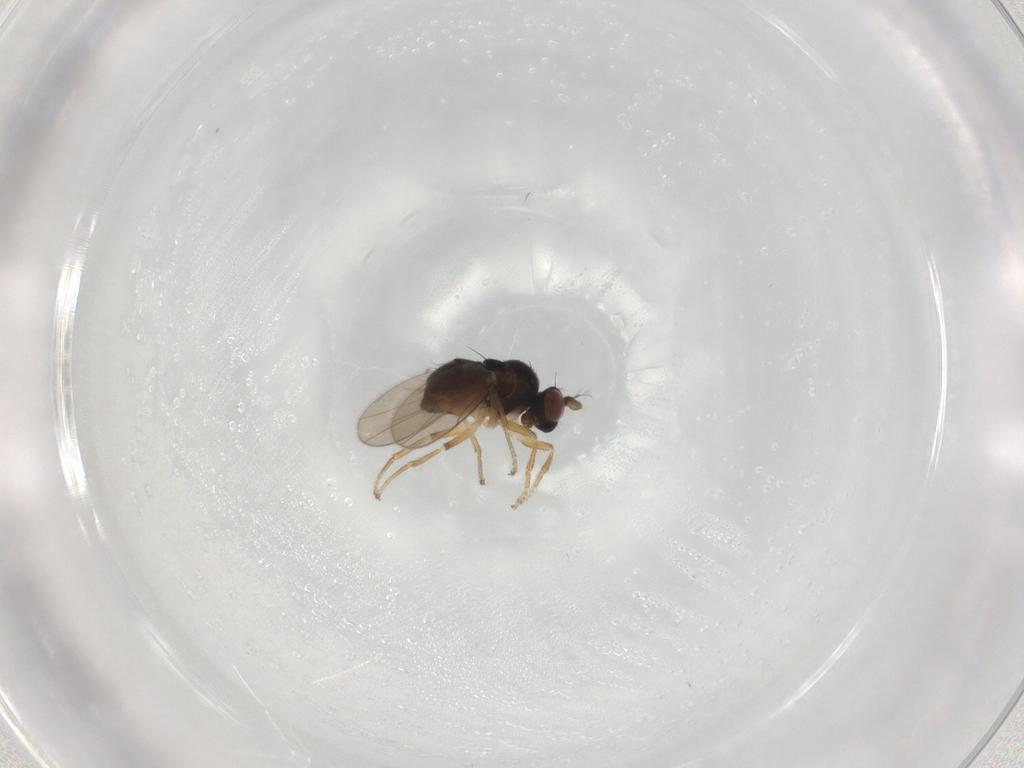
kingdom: Animalia
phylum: Arthropoda
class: Insecta
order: Diptera
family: Ephydridae
